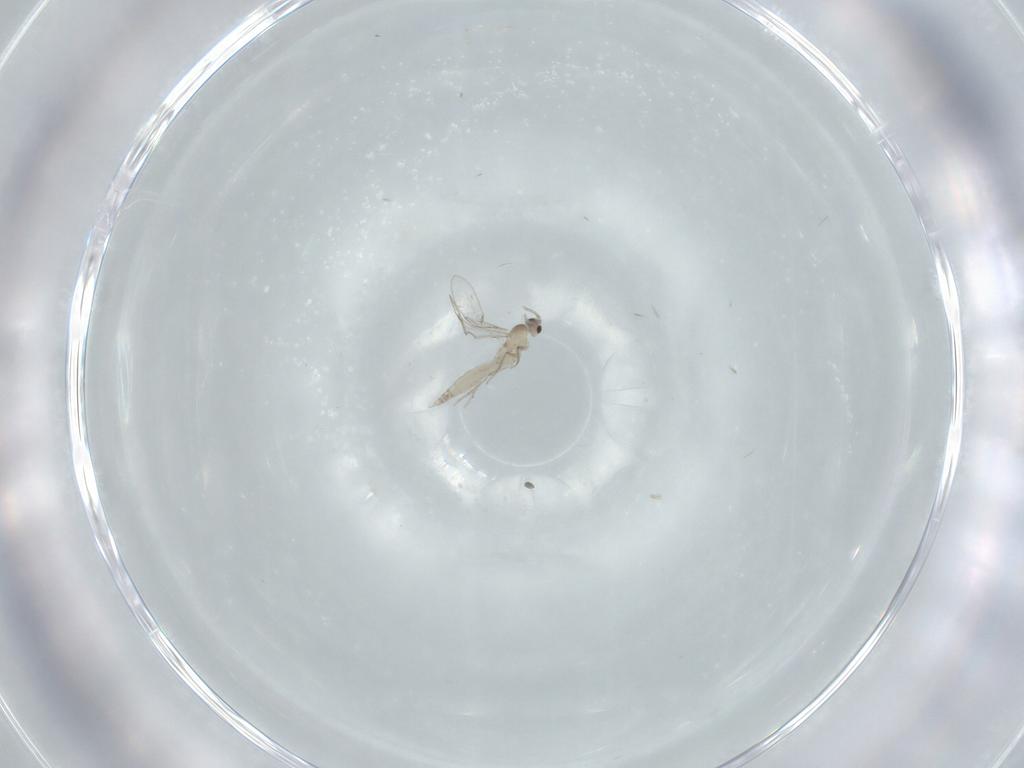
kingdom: Animalia
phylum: Arthropoda
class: Insecta
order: Diptera
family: Cecidomyiidae
